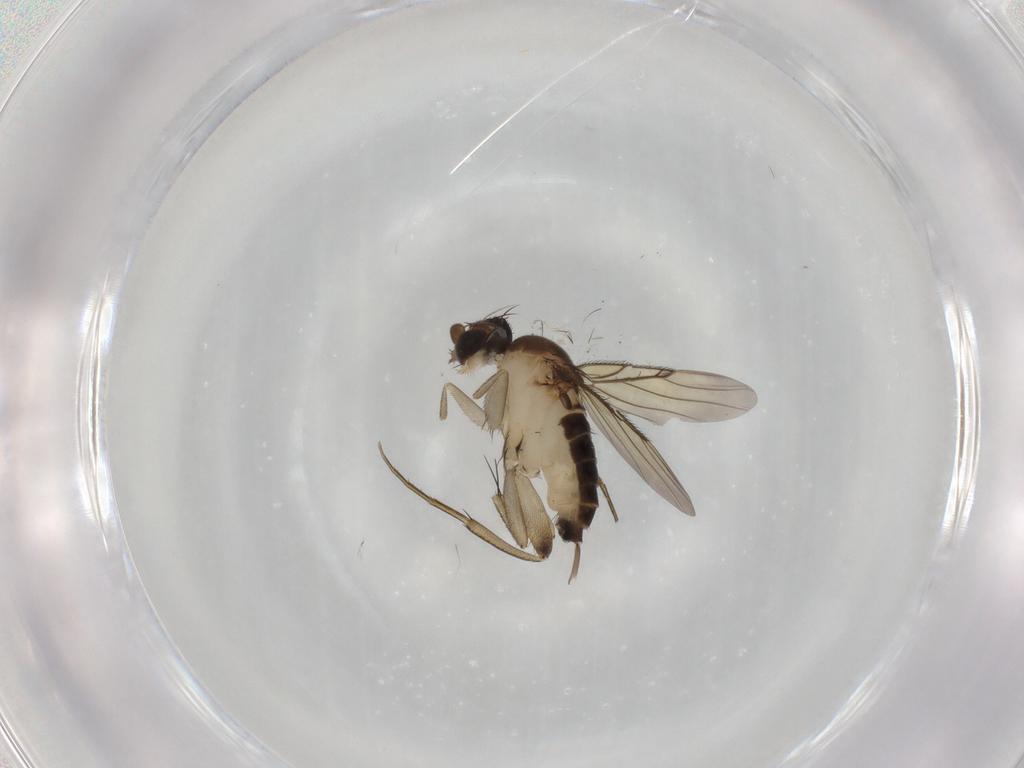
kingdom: Animalia
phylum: Arthropoda
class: Insecta
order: Diptera
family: Phoridae
